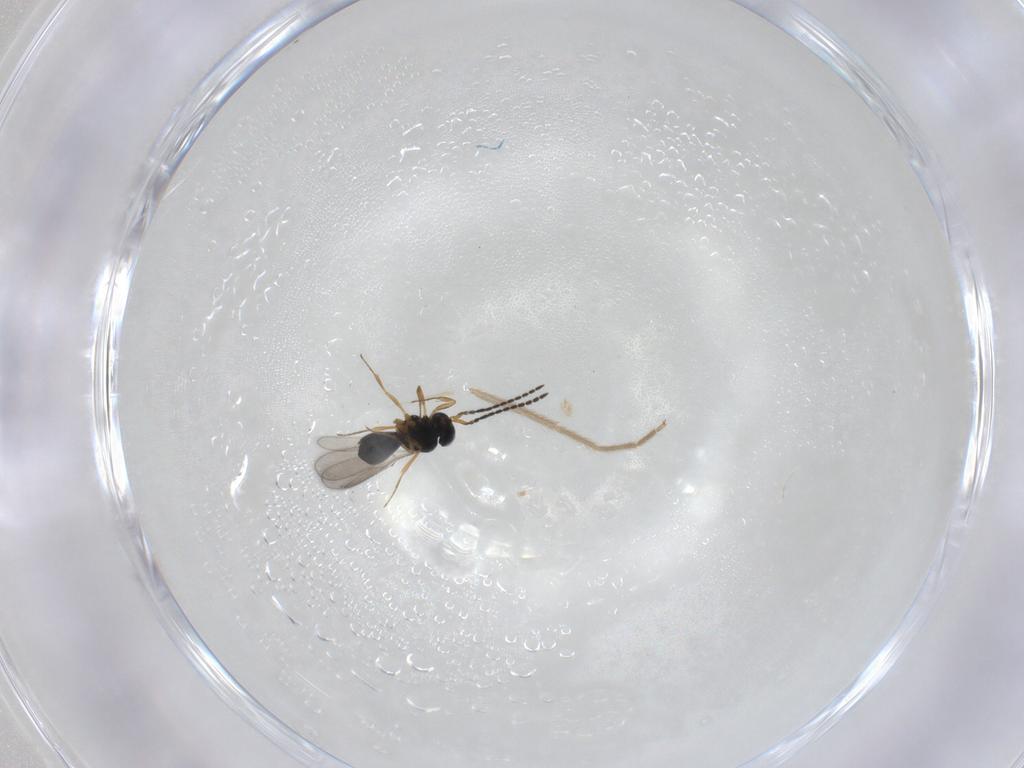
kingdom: Animalia
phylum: Arthropoda
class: Insecta
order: Hymenoptera
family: Scelionidae
